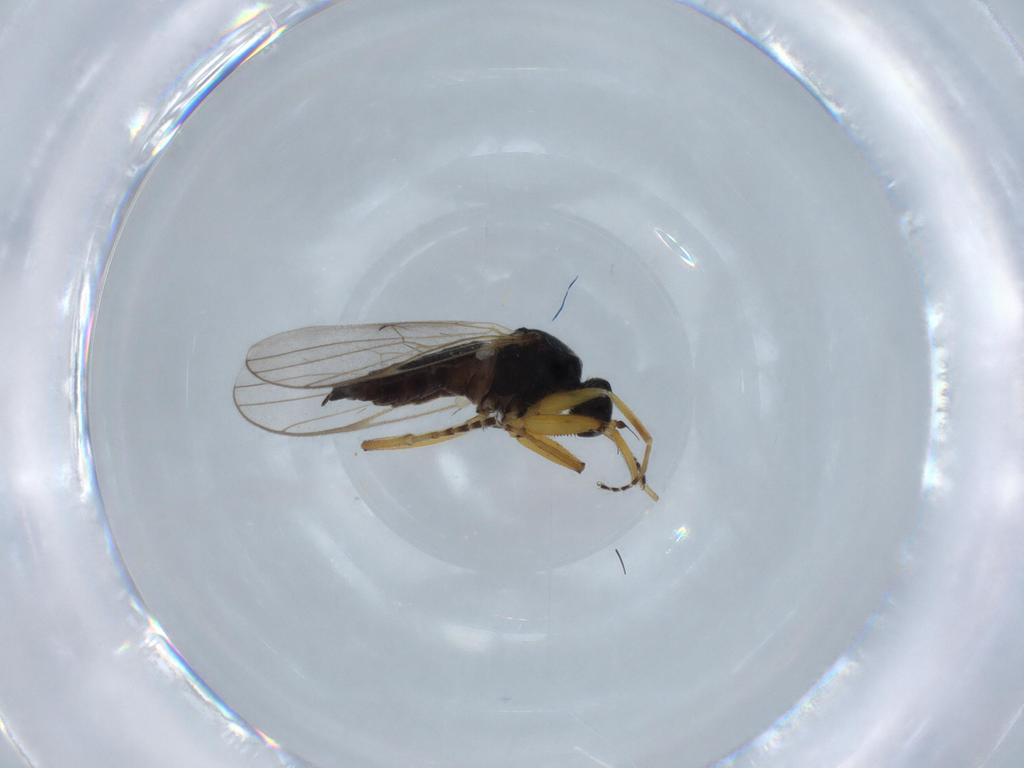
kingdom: Animalia
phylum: Arthropoda
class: Insecta
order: Diptera
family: Hybotidae
